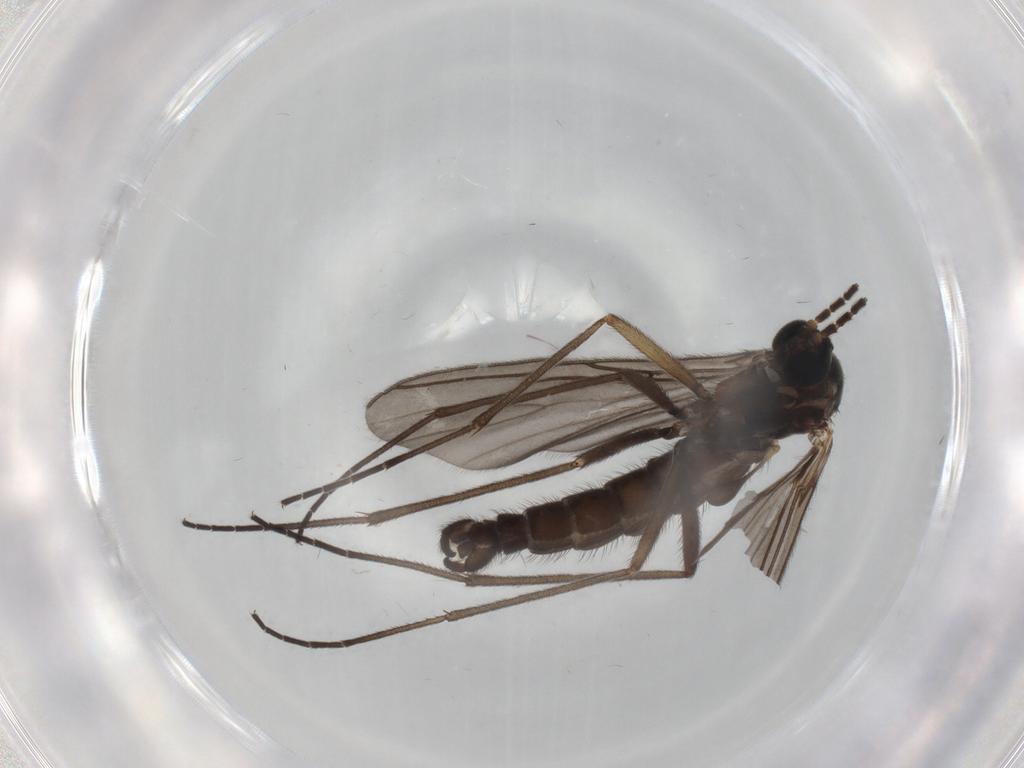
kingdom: Animalia
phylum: Arthropoda
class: Insecta
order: Diptera
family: Sciaridae
